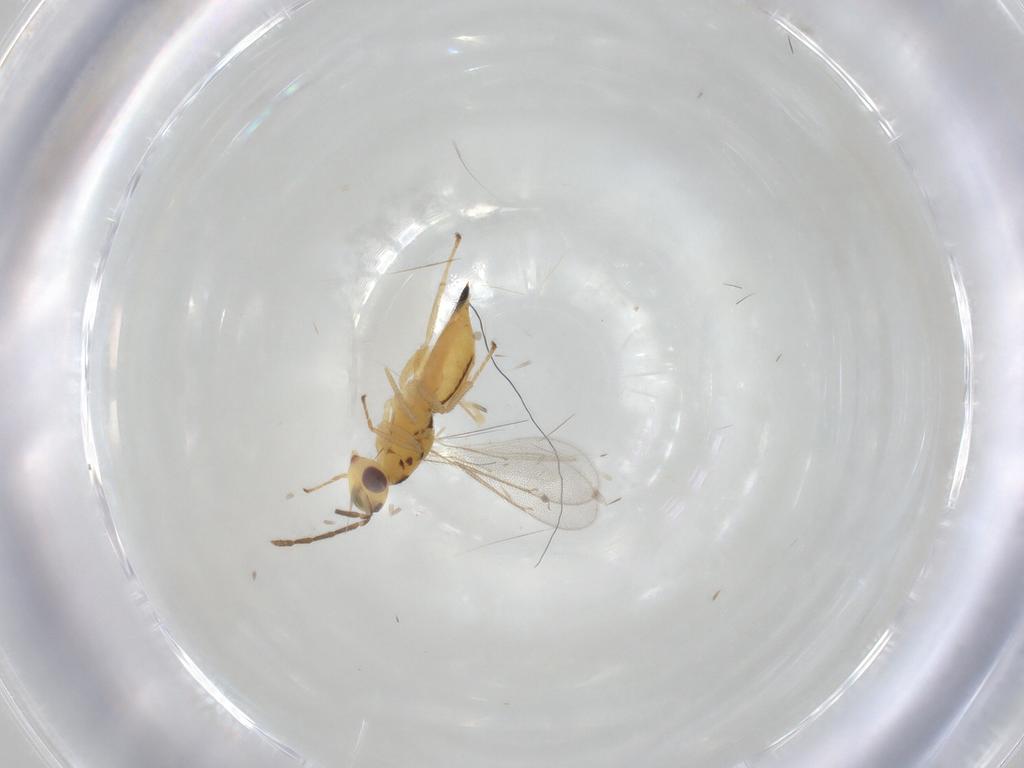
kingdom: Animalia
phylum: Arthropoda
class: Insecta
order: Hymenoptera
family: Eulophidae
